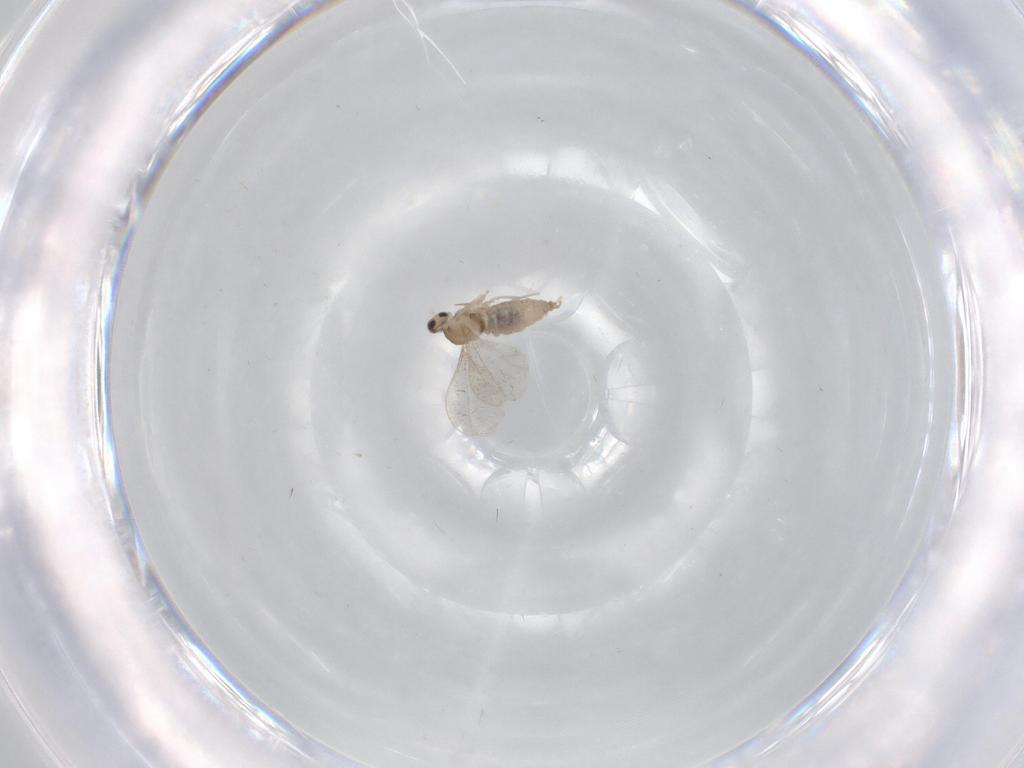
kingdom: Animalia
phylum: Arthropoda
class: Insecta
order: Diptera
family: Cecidomyiidae
